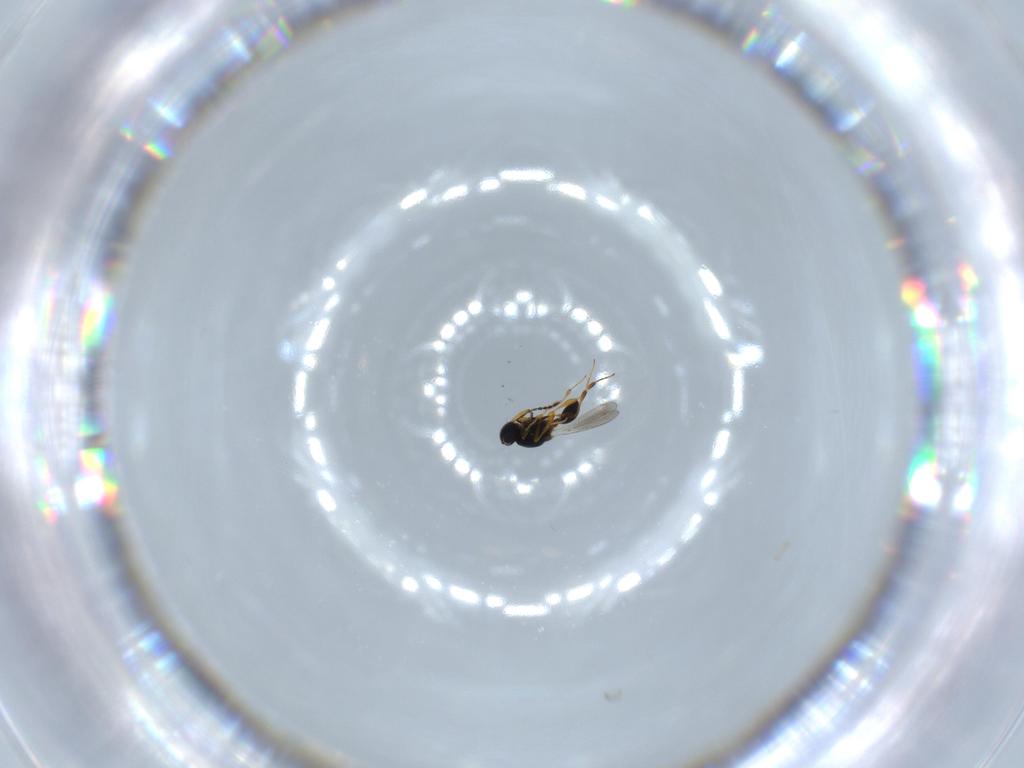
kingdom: Animalia
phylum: Arthropoda
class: Insecta
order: Hymenoptera
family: Platygastridae
